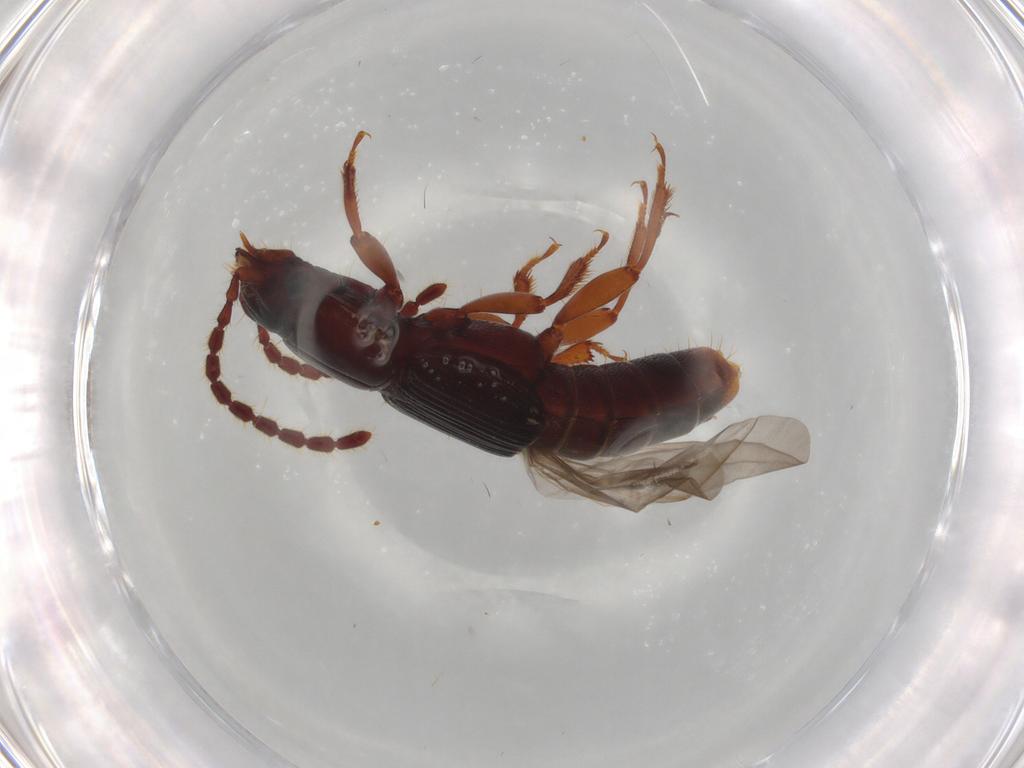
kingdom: Animalia
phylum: Arthropoda
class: Insecta
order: Coleoptera
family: Staphylinidae
